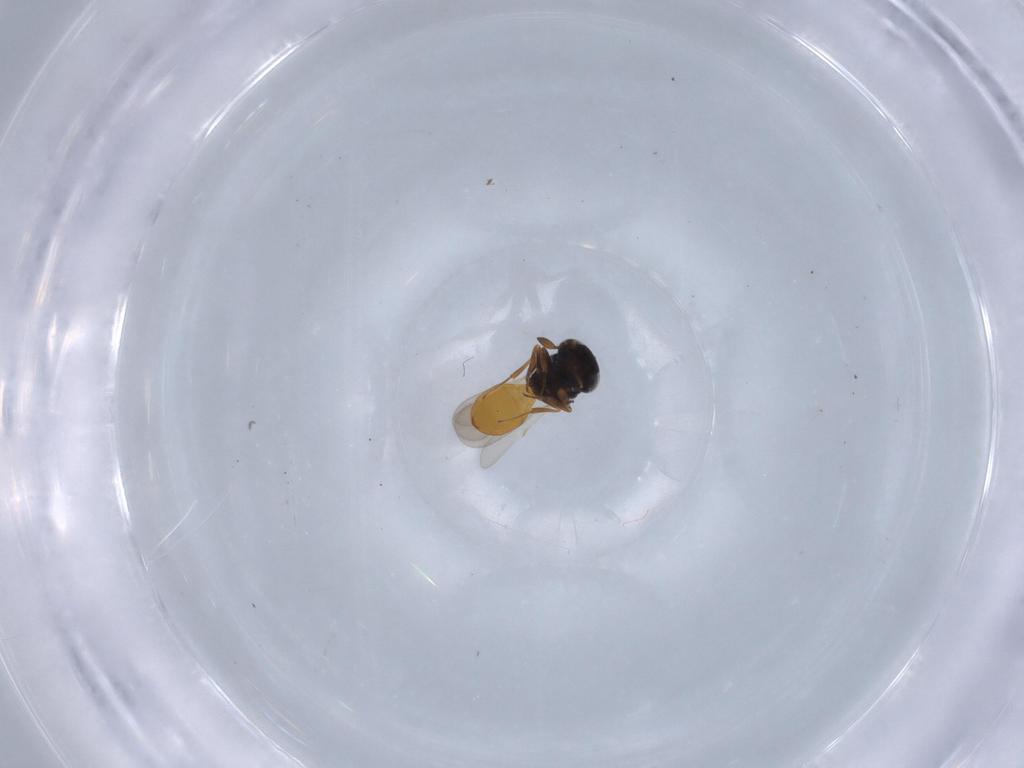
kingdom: Animalia
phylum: Arthropoda
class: Insecta
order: Hymenoptera
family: Scelionidae
